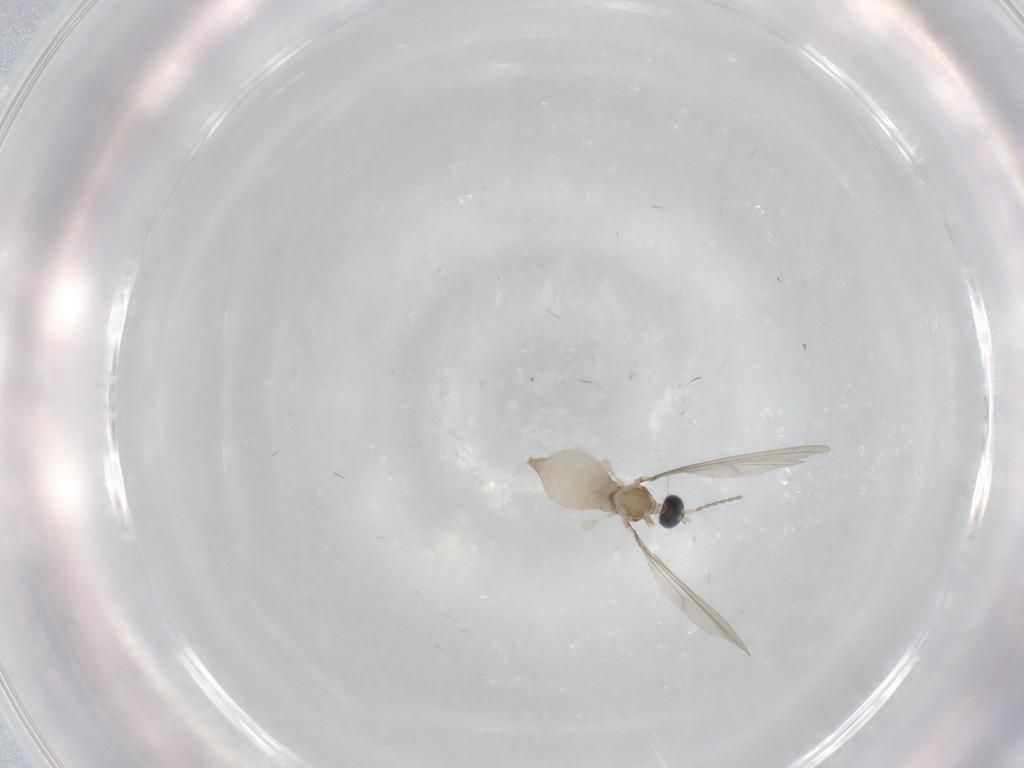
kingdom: Animalia
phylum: Arthropoda
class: Insecta
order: Diptera
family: Cecidomyiidae
